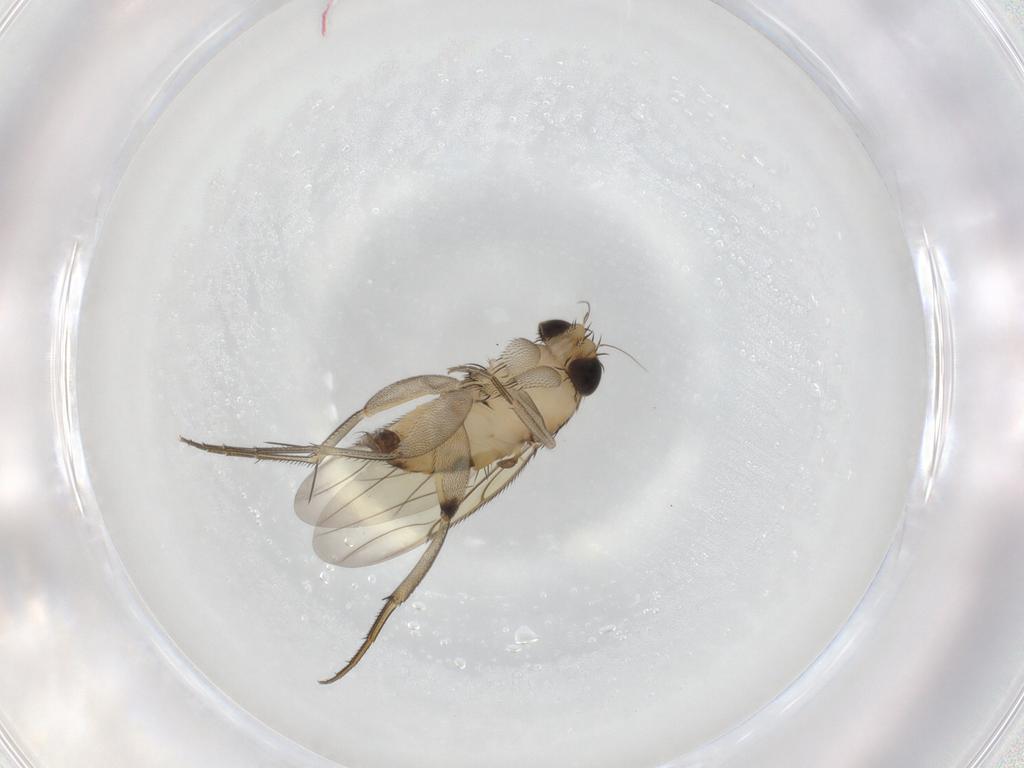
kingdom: Animalia
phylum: Arthropoda
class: Insecta
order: Diptera
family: Phoridae
